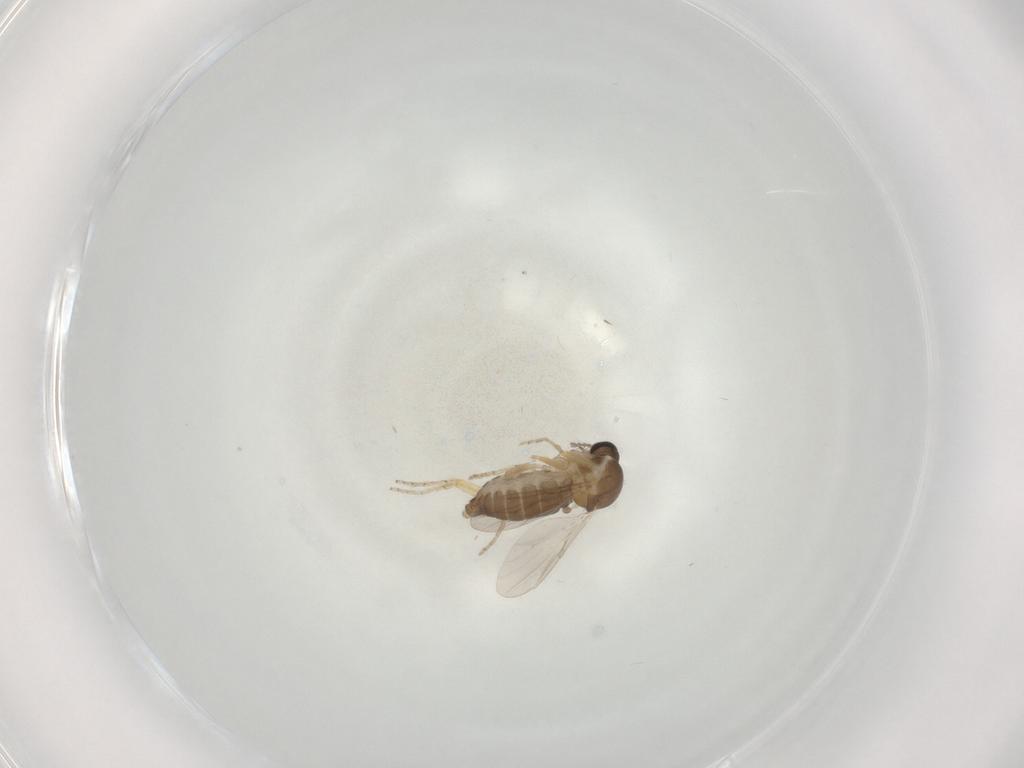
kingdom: Animalia
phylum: Arthropoda
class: Insecta
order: Diptera
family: Ceratopogonidae
